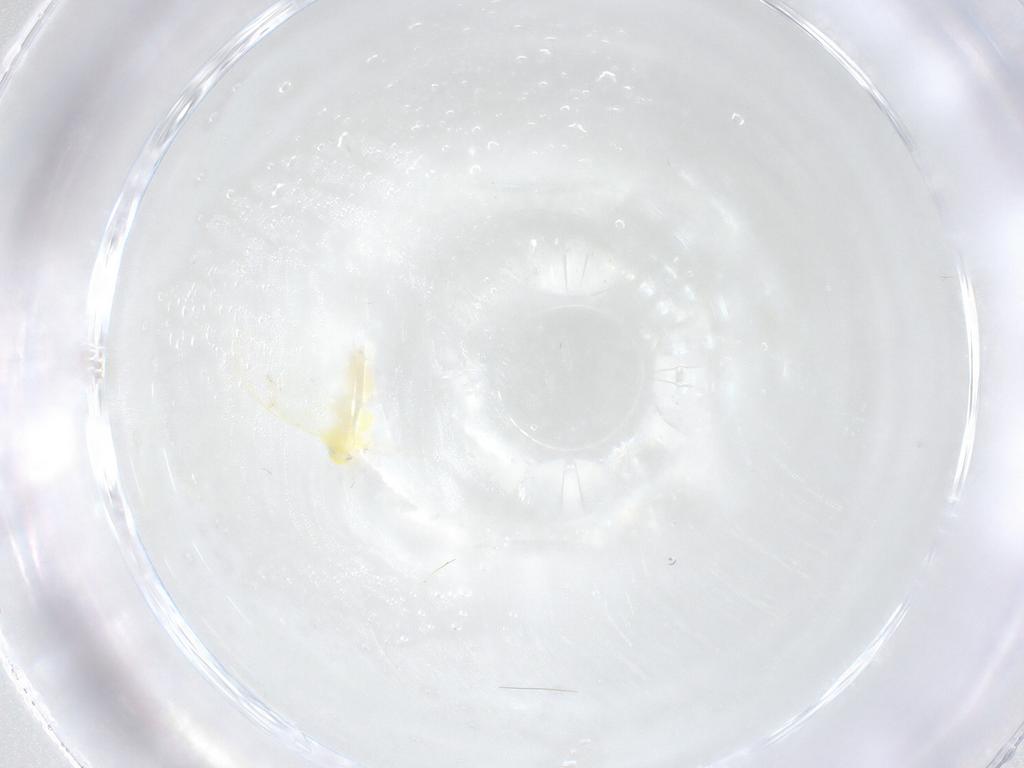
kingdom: Animalia
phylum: Arthropoda
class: Insecta
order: Hemiptera
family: Aleyrodidae
